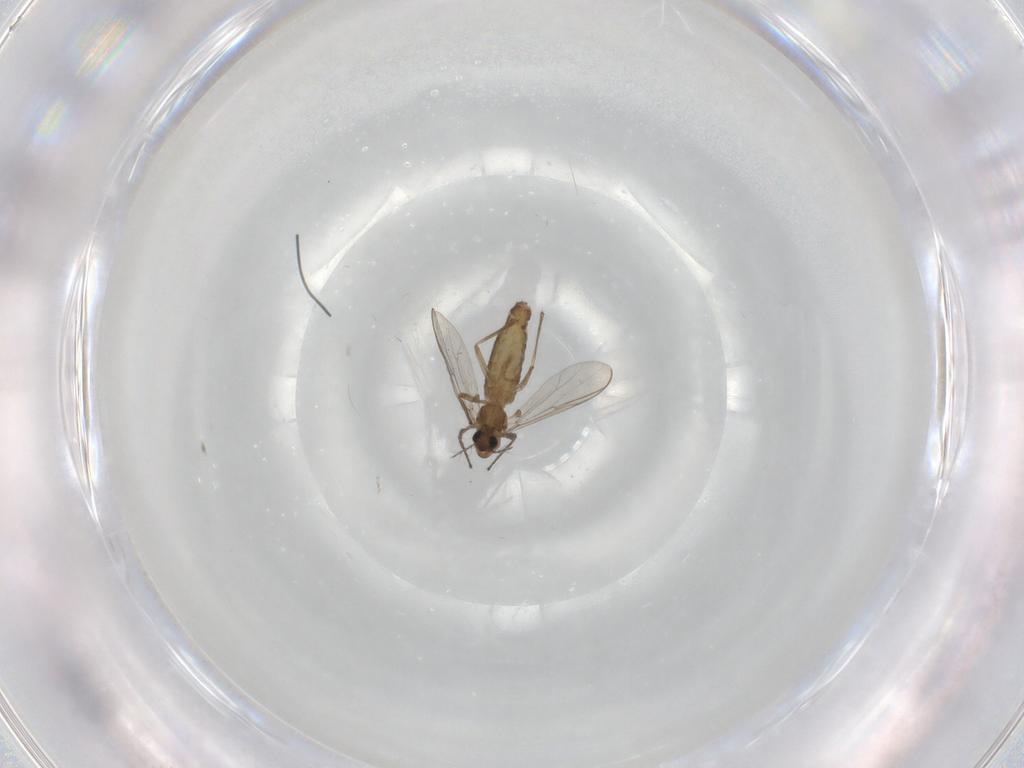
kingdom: Animalia
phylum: Arthropoda
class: Insecta
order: Diptera
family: Chironomidae
